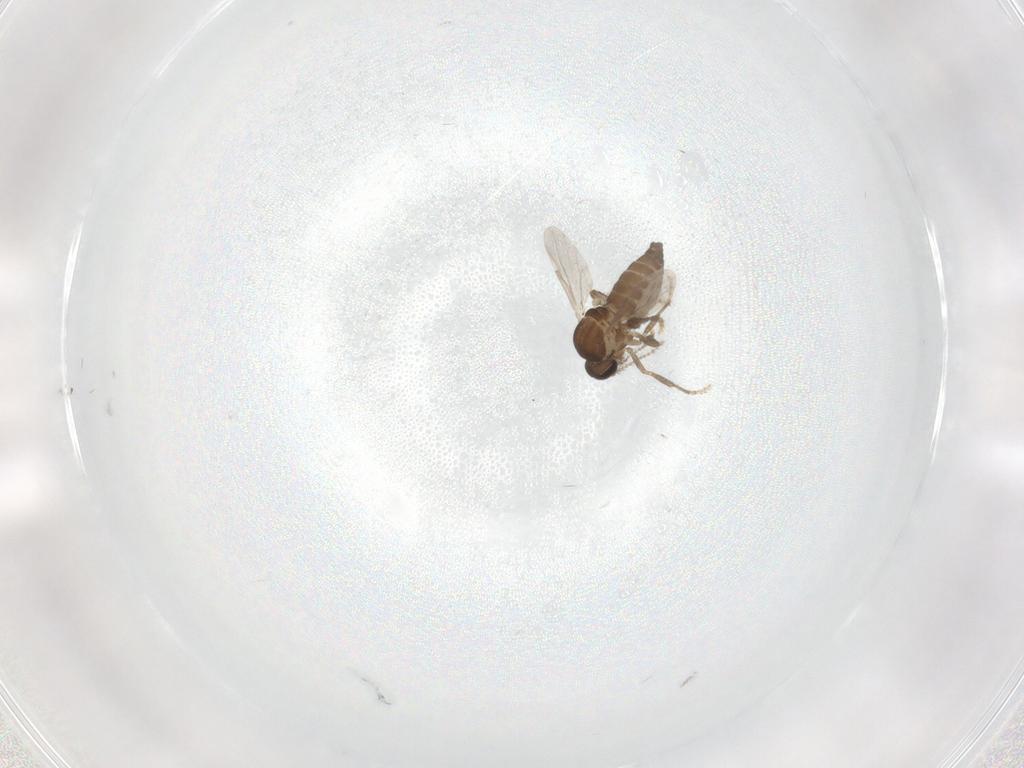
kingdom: Animalia
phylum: Arthropoda
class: Insecta
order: Diptera
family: Ceratopogonidae
